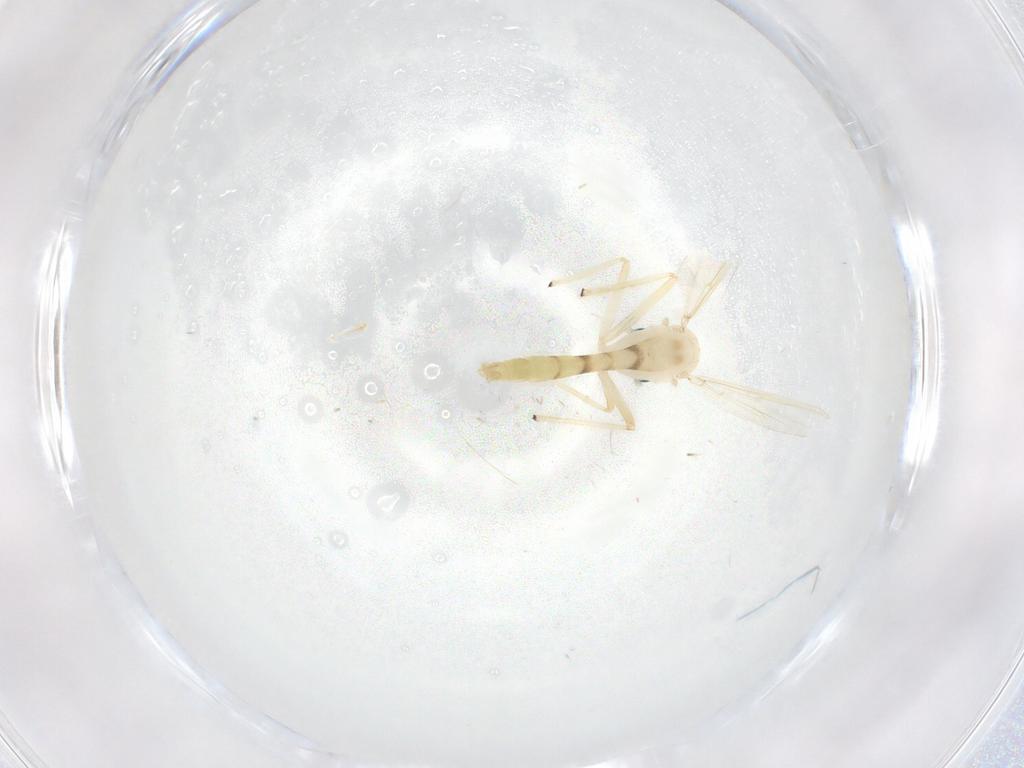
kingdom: Animalia
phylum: Arthropoda
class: Insecta
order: Diptera
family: Chironomidae
